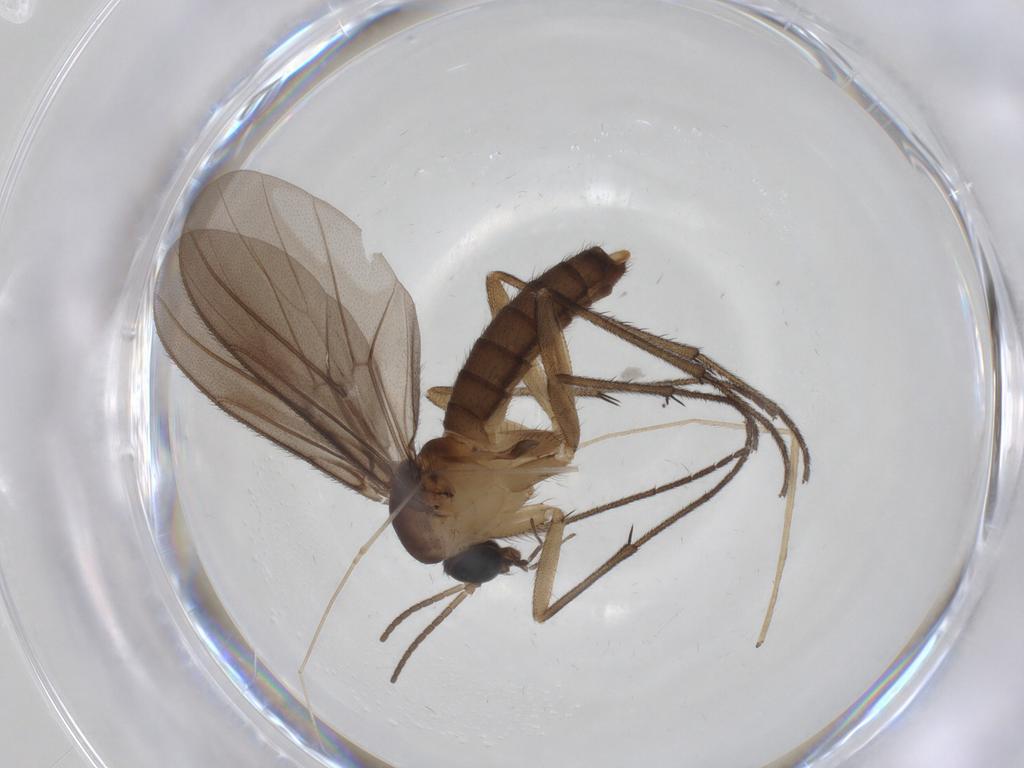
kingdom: Animalia
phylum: Arthropoda
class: Insecta
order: Diptera
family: Limoniidae
